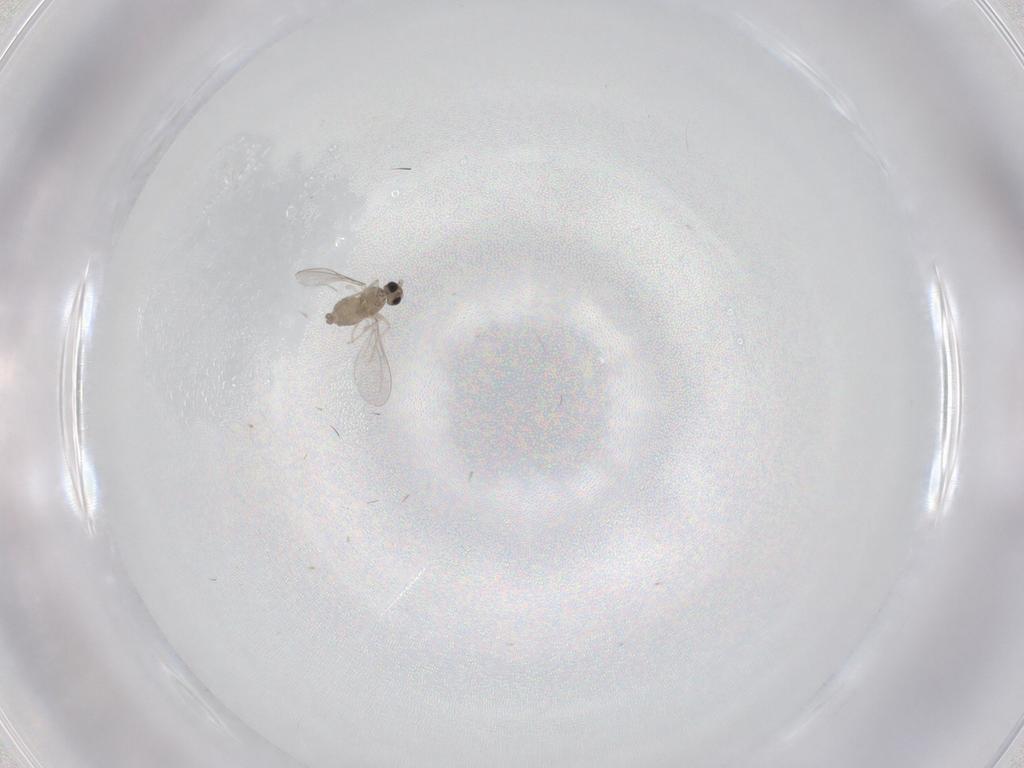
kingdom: Animalia
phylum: Arthropoda
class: Insecta
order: Diptera
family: Cecidomyiidae
